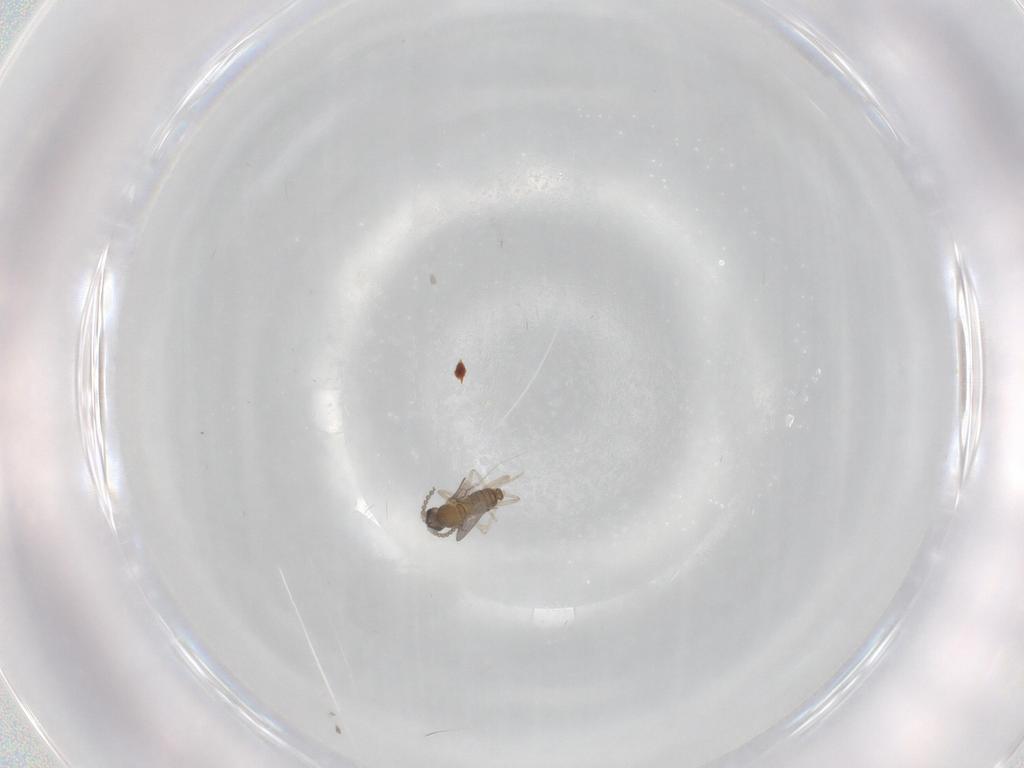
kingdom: Animalia
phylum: Arthropoda
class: Insecta
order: Diptera
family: Cecidomyiidae
